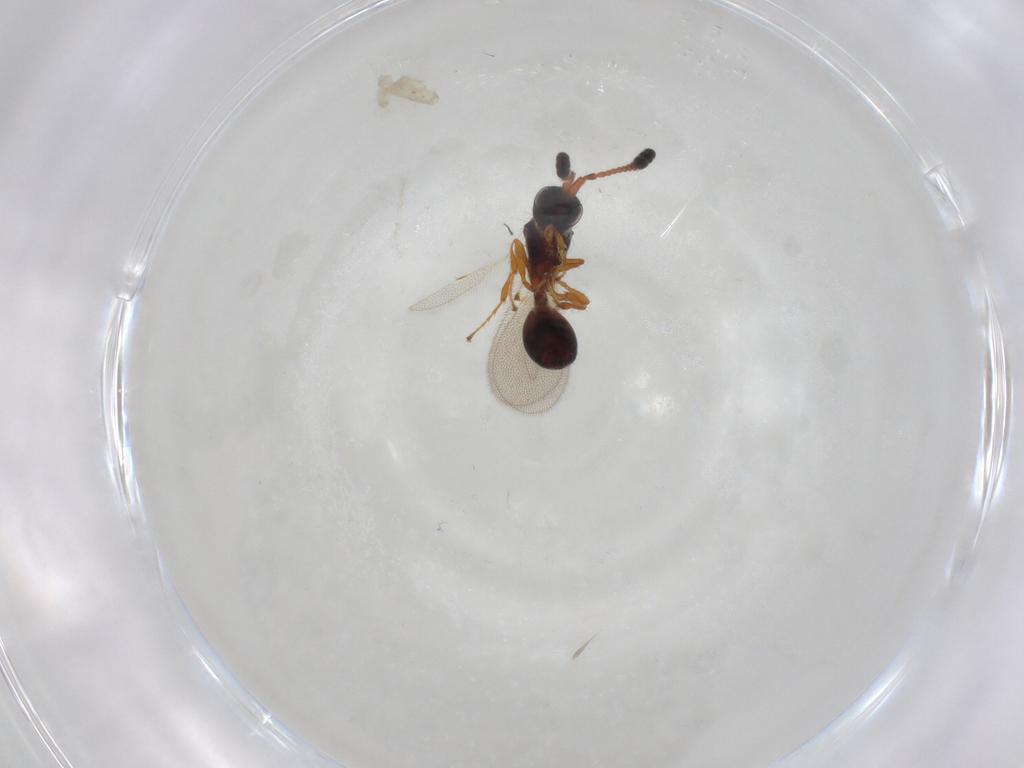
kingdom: Animalia
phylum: Arthropoda
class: Insecta
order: Hymenoptera
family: Diapriidae
